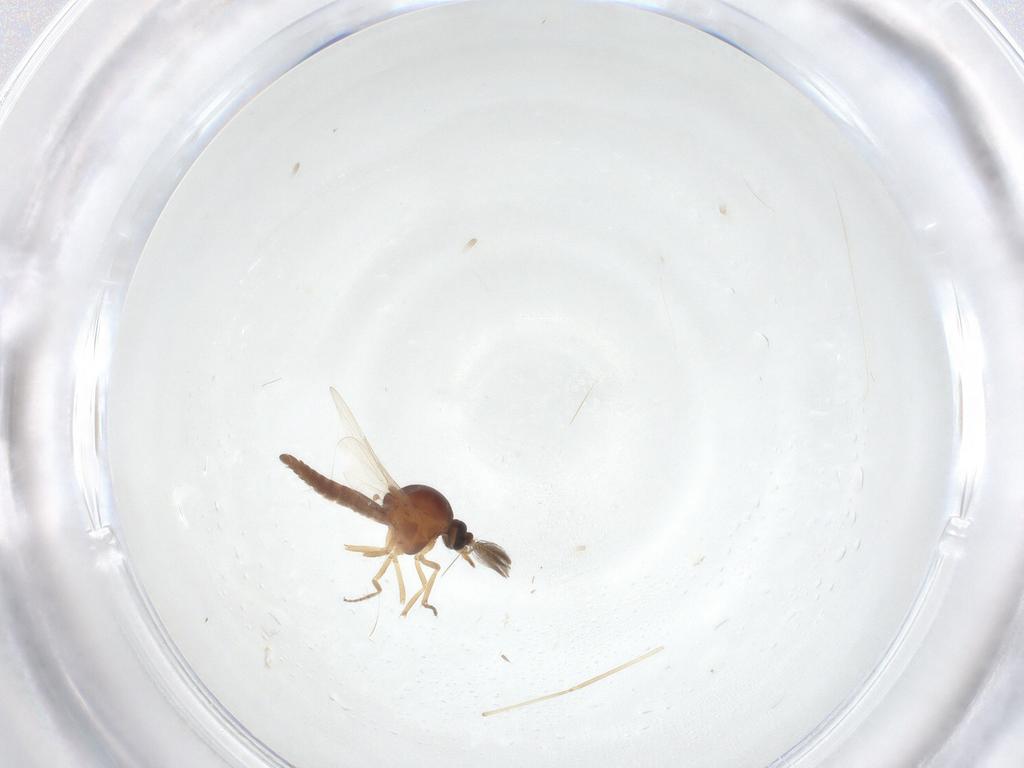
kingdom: Animalia
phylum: Arthropoda
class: Insecta
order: Diptera
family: Ceratopogonidae
